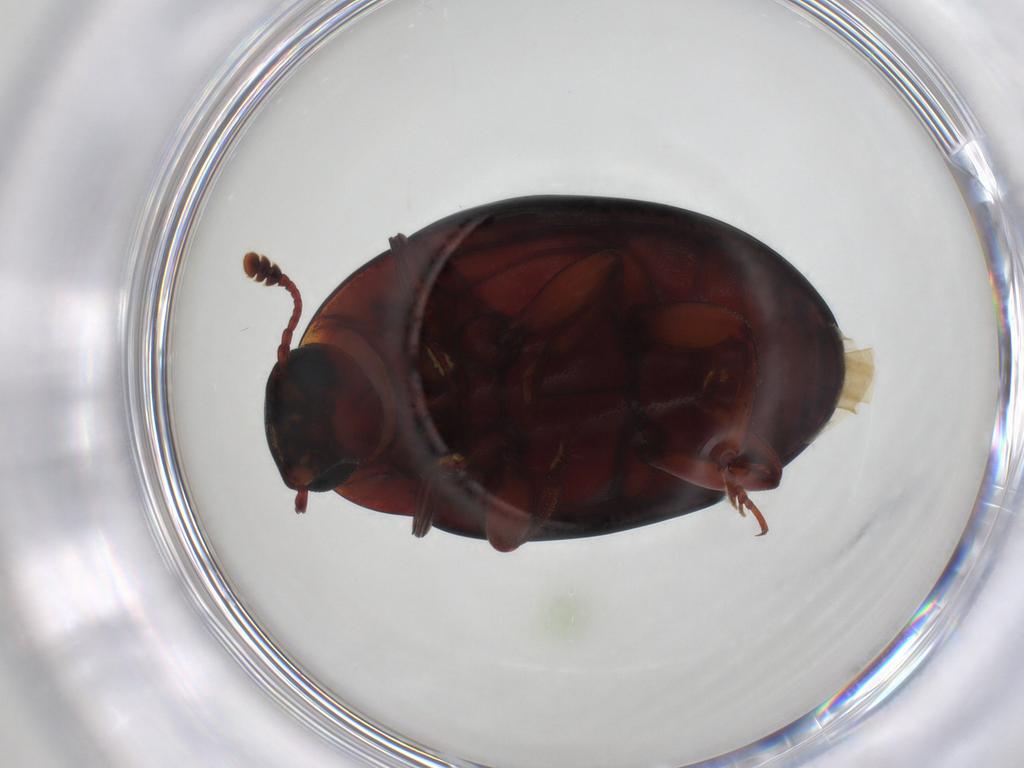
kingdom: Animalia
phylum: Arthropoda
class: Insecta
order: Coleoptera
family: Zopheridae
